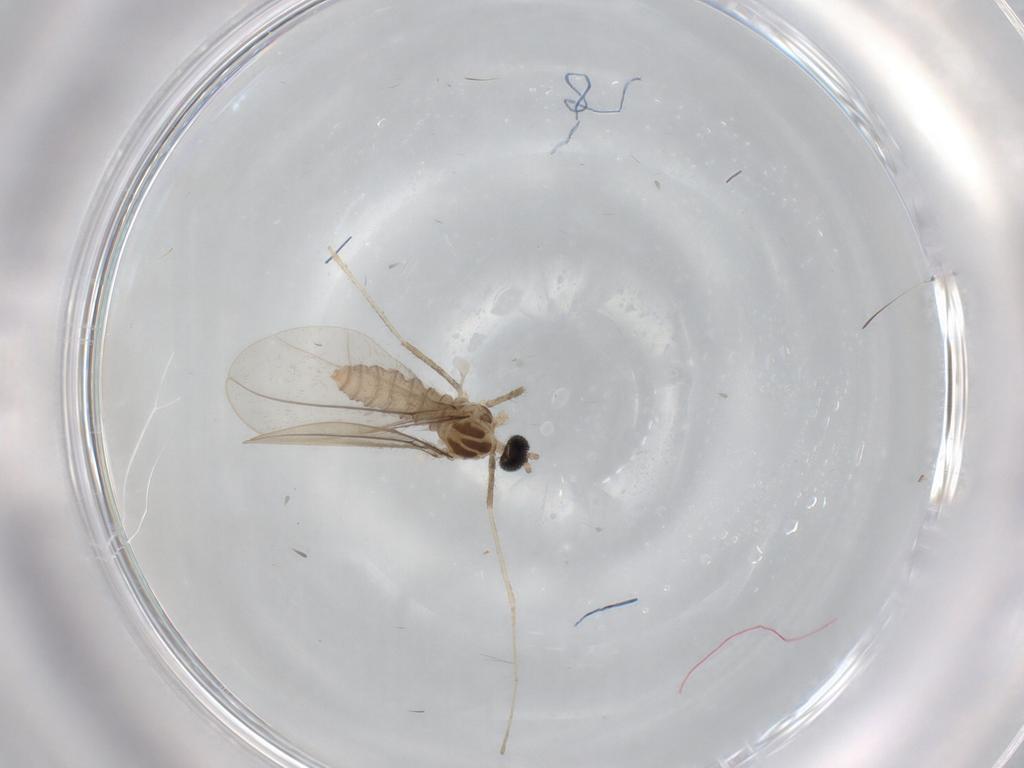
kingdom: Animalia
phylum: Arthropoda
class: Insecta
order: Diptera
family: Cecidomyiidae
